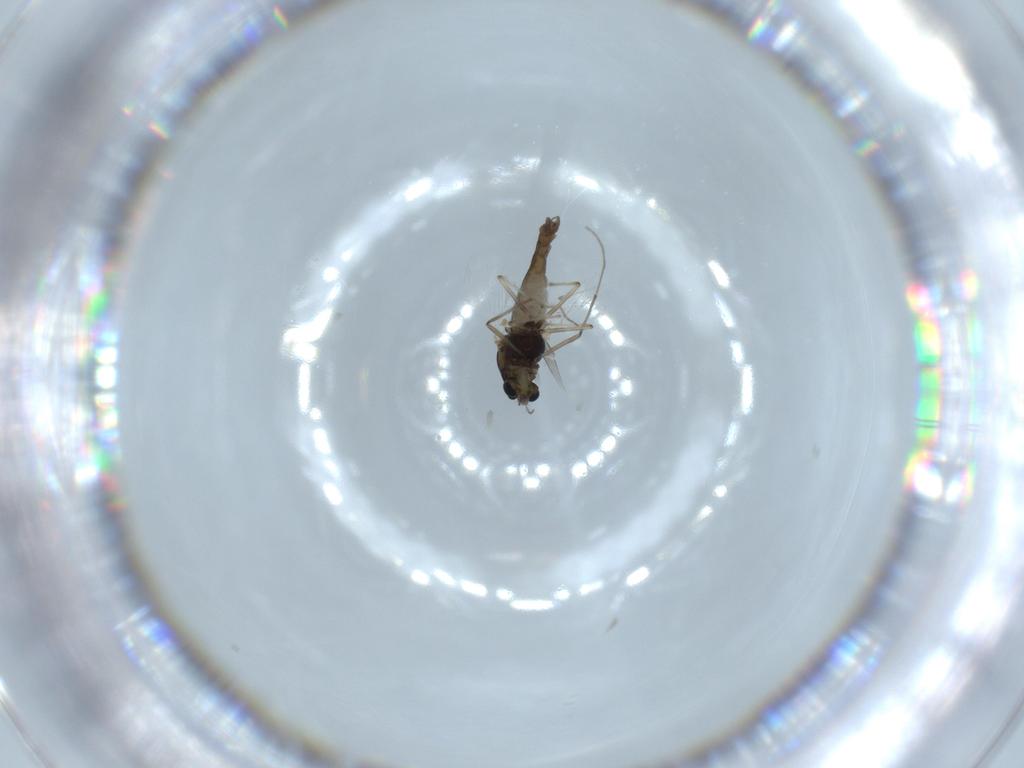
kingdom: Animalia
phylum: Arthropoda
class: Insecta
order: Diptera
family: Chironomidae
